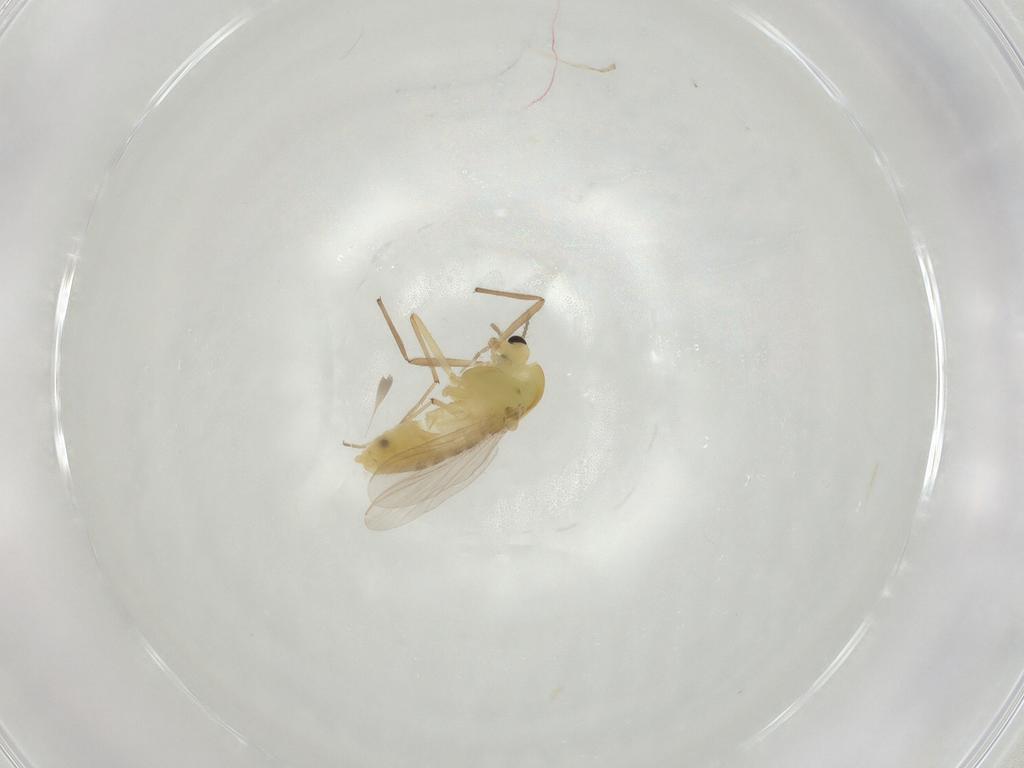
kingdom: Animalia
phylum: Arthropoda
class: Insecta
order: Diptera
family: Chironomidae
